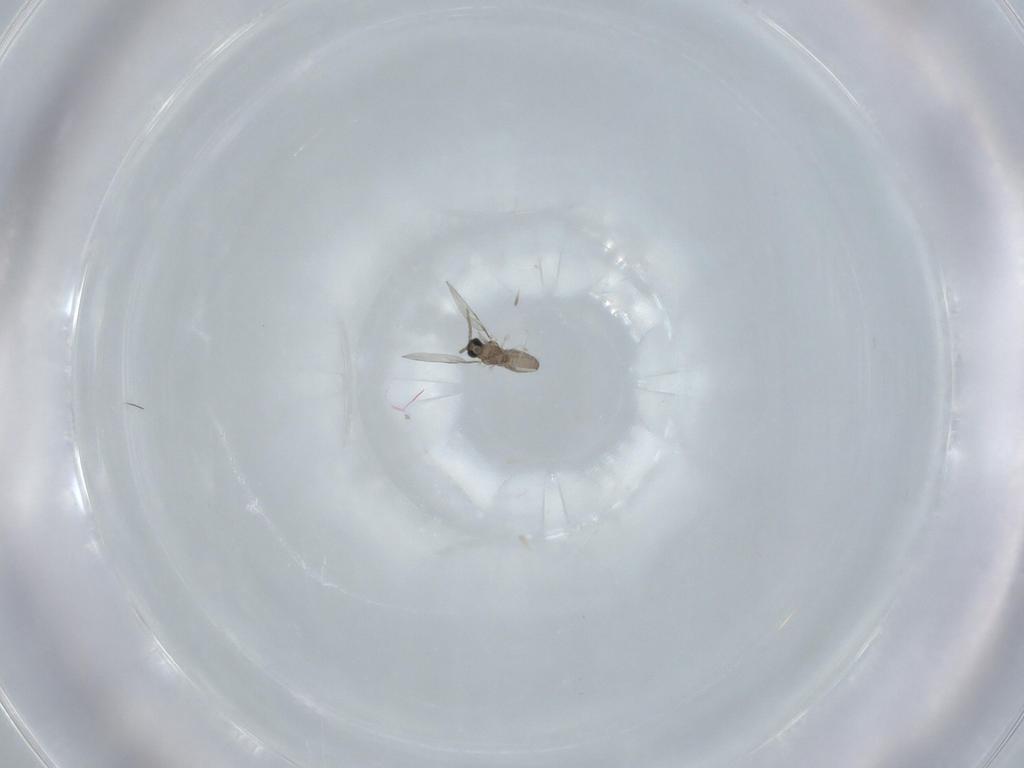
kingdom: Animalia
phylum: Arthropoda
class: Insecta
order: Diptera
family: Cecidomyiidae
